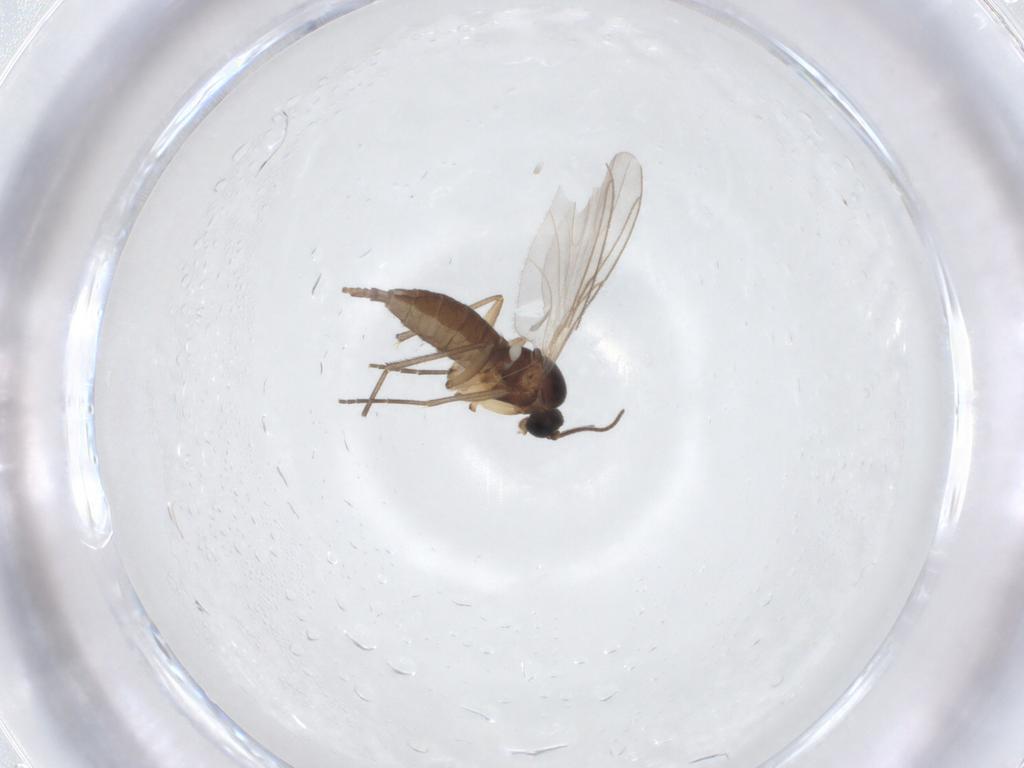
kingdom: Animalia
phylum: Arthropoda
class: Insecta
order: Diptera
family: Sciaridae
